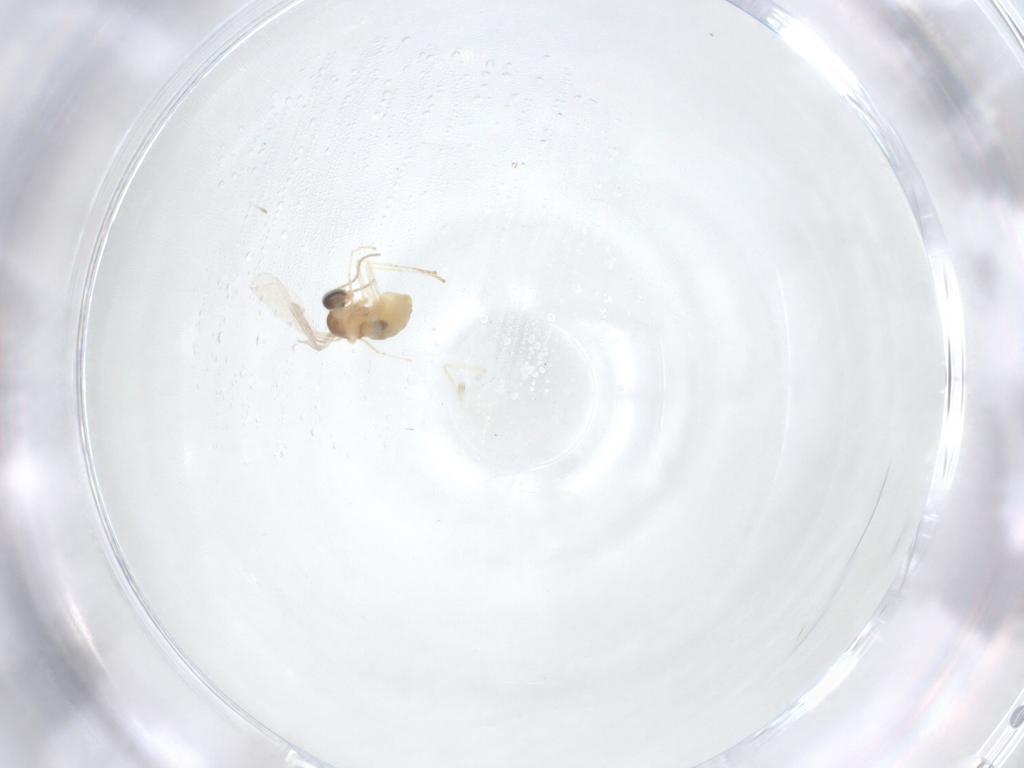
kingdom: Animalia
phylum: Arthropoda
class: Insecta
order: Diptera
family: Cecidomyiidae
